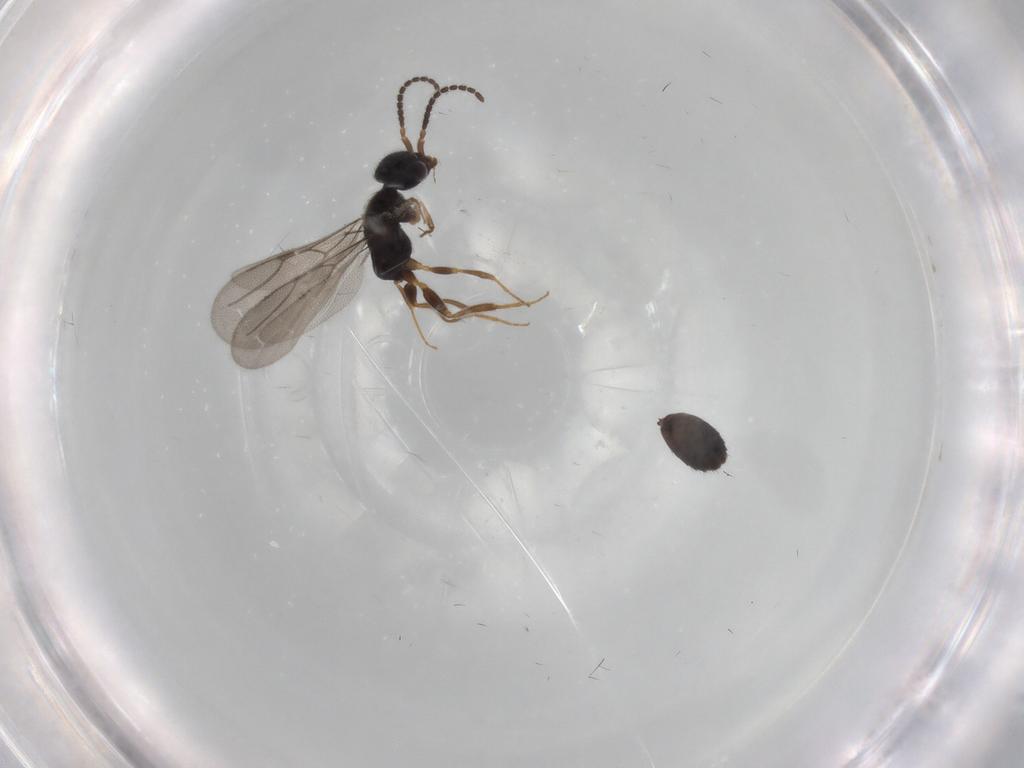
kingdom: Animalia
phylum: Arthropoda
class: Insecta
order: Hymenoptera
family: Bethylidae
